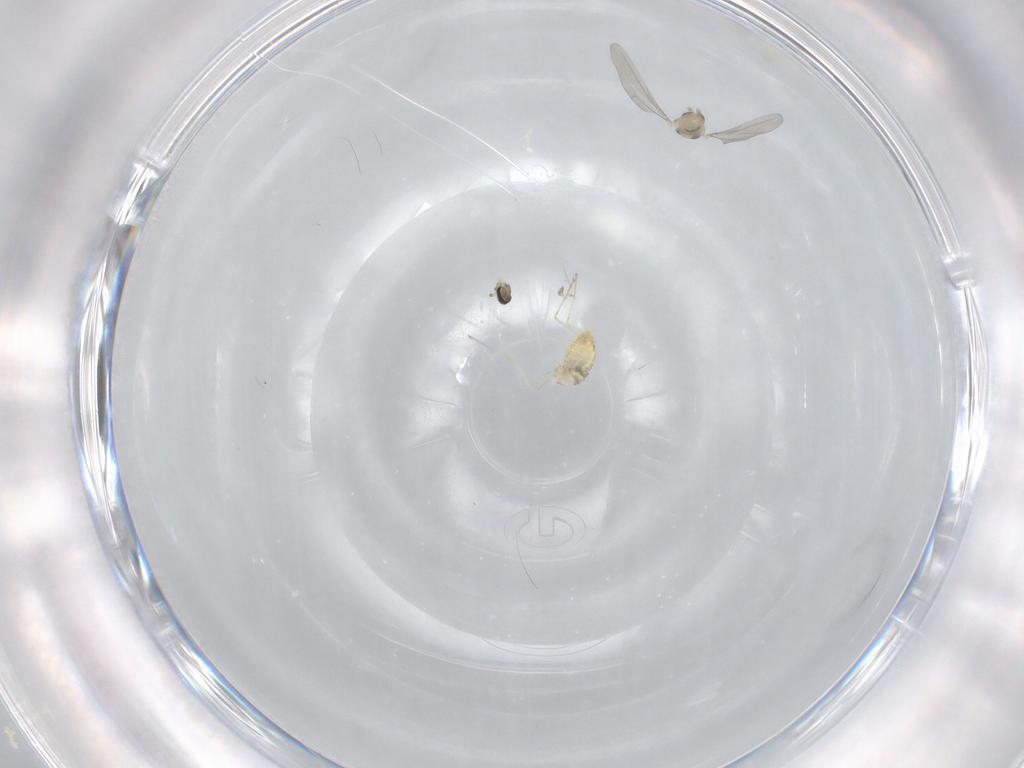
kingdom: Animalia
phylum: Arthropoda
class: Insecta
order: Diptera
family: Cecidomyiidae
